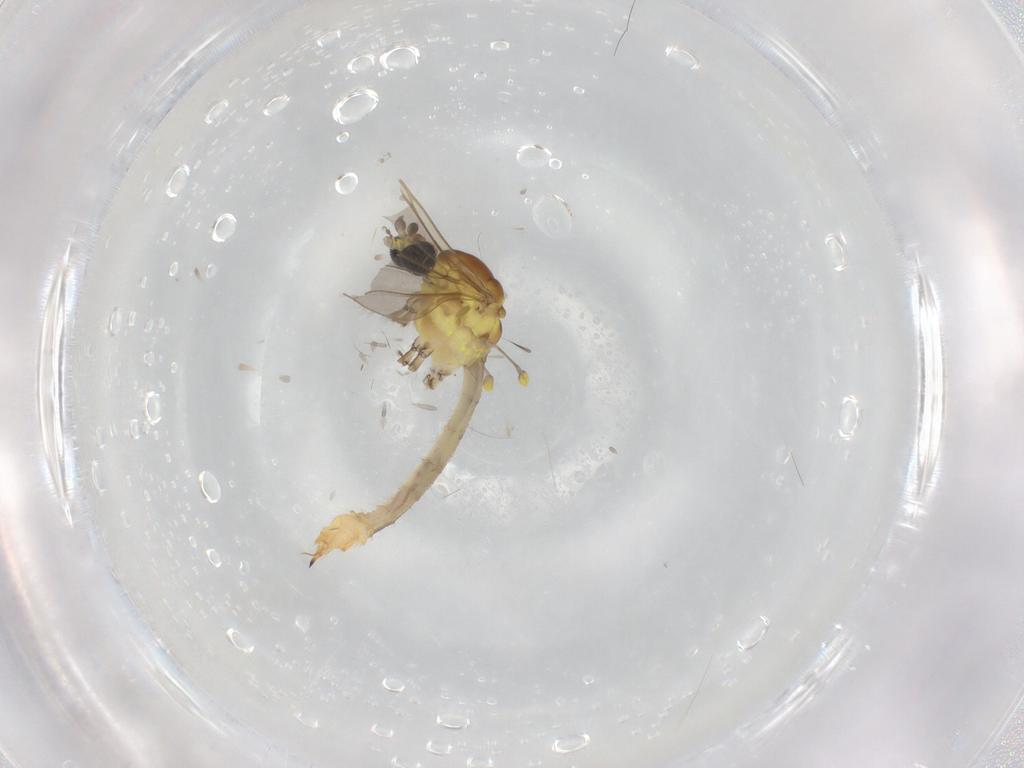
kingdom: Animalia
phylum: Arthropoda
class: Insecta
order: Diptera
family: Limoniidae
